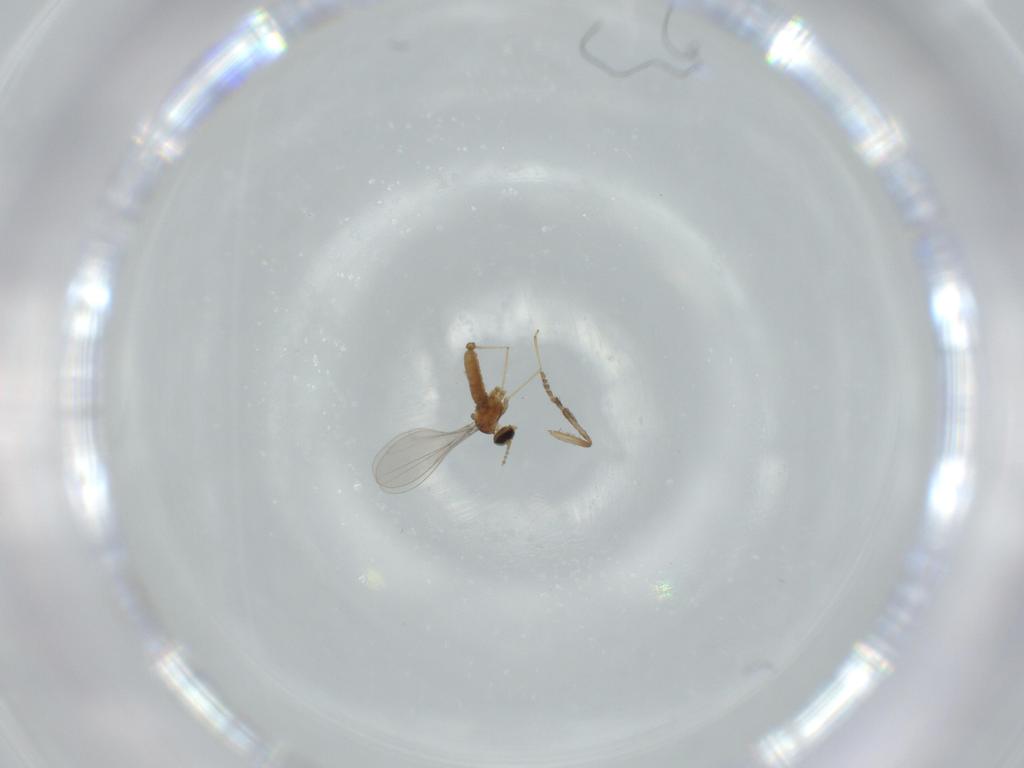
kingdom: Animalia
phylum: Arthropoda
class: Insecta
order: Diptera
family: Cecidomyiidae
